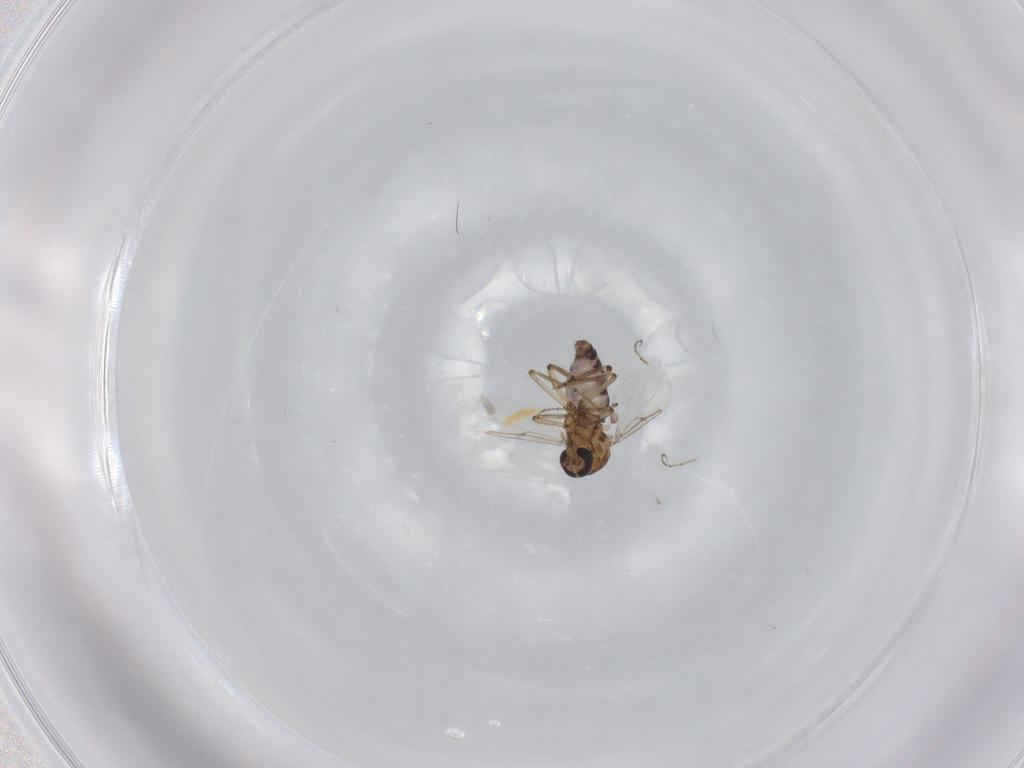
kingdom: Animalia
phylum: Arthropoda
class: Insecta
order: Diptera
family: Ceratopogonidae
